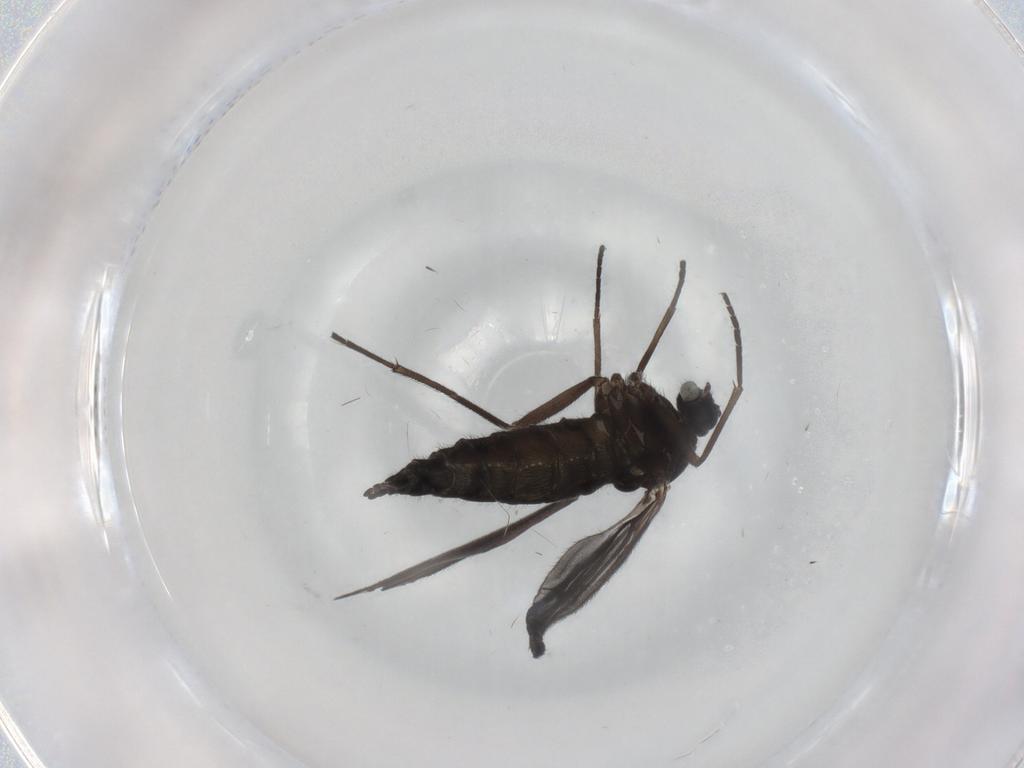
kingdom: Animalia
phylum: Arthropoda
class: Insecta
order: Diptera
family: Sciaridae
